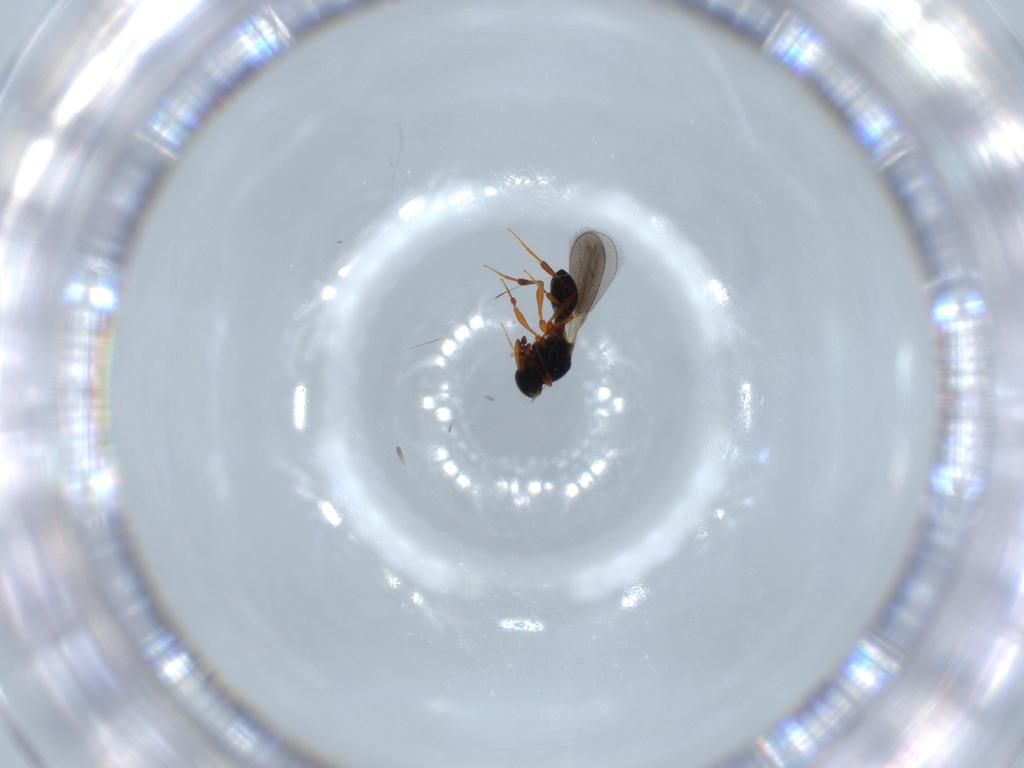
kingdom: Animalia
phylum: Arthropoda
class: Insecta
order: Hymenoptera
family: Platygastridae
